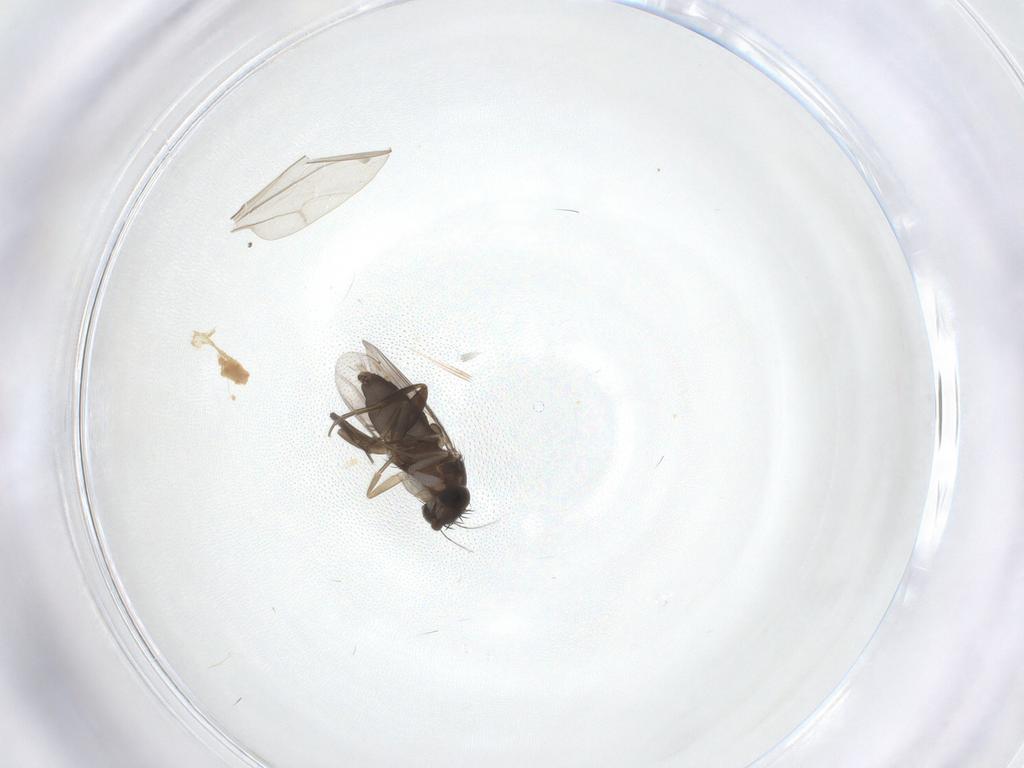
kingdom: Animalia
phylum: Arthropoda
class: Insecta
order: Diptera
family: Cecidomyiidae
